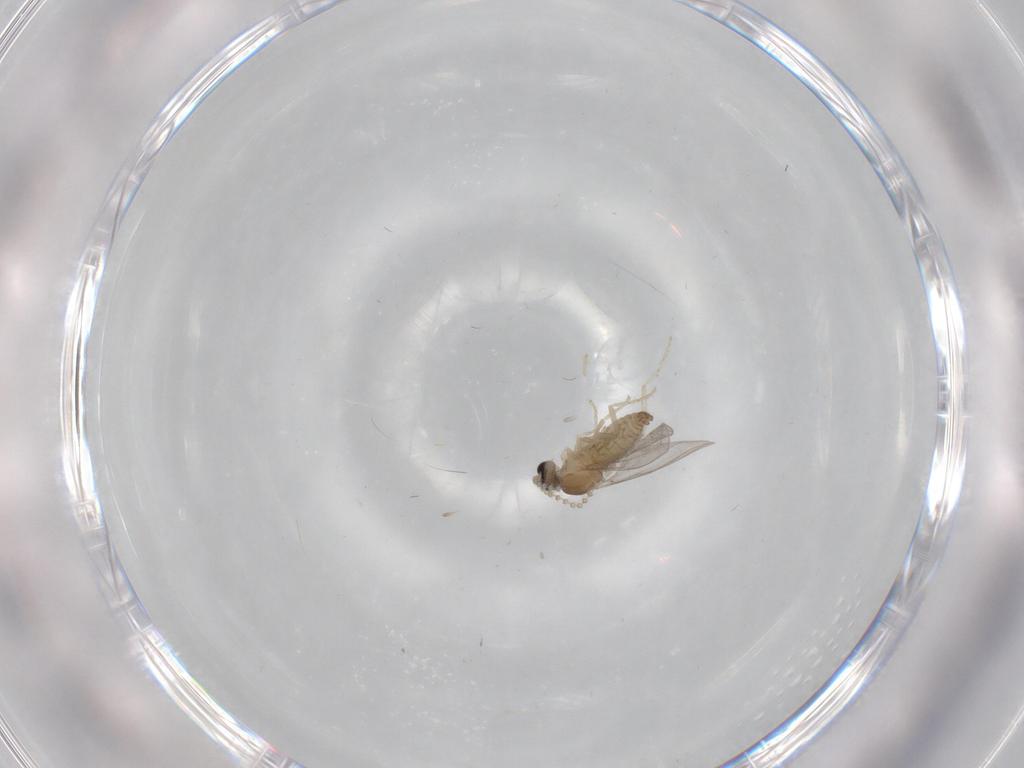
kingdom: Animalia
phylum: Arthropoda
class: Insecta
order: Diptera
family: Cecidomyiidae
